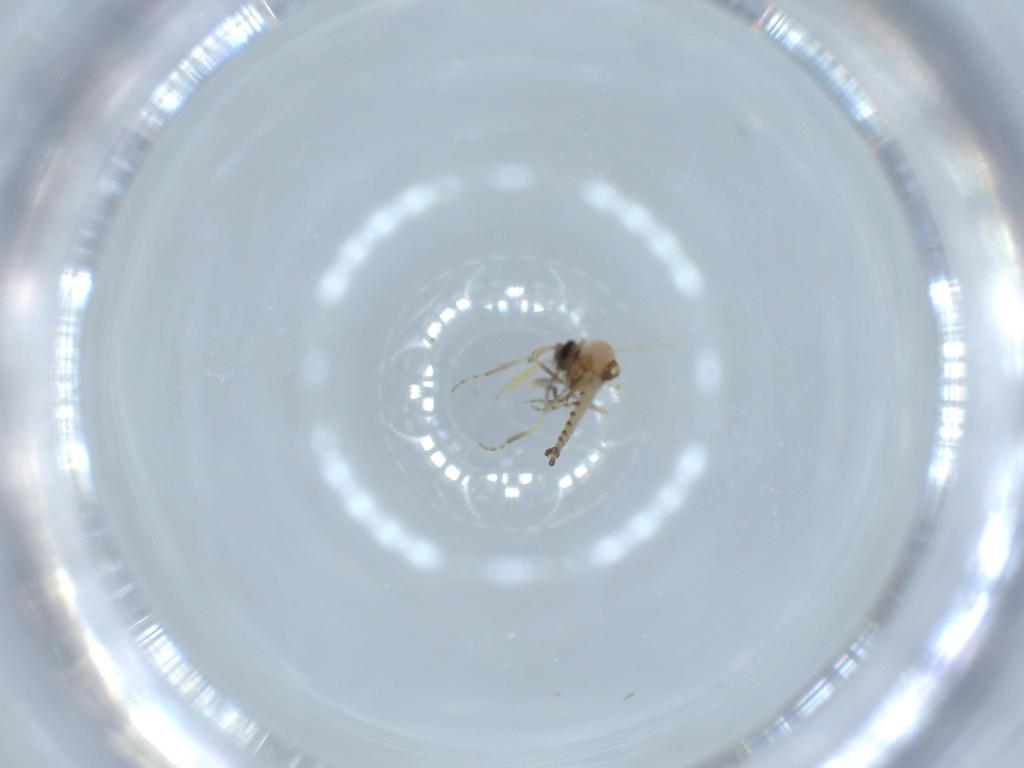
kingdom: Animalia
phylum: Arthropoda
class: Insecta
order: Diptera
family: Ceratopogonidae
